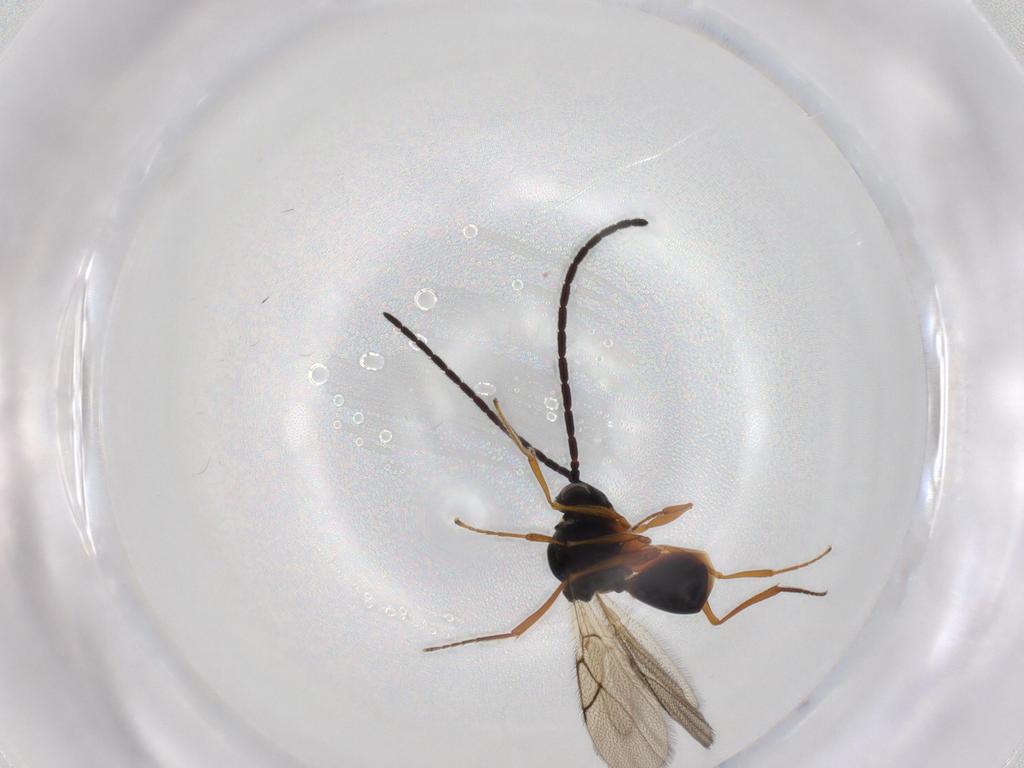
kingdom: Animalia
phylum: Arthropoda
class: Insecta
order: Hymenoptera
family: Figitidae
